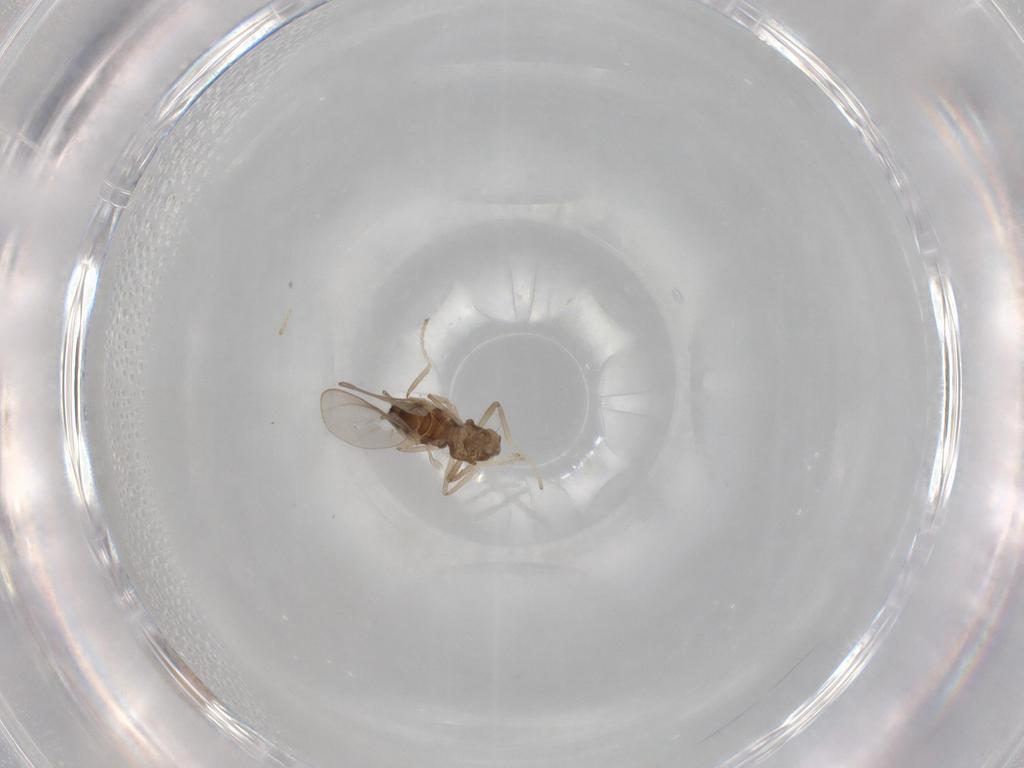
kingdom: Animalia
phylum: Arthropoda
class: Insecta
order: Diptera
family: Cecidomyiidae
